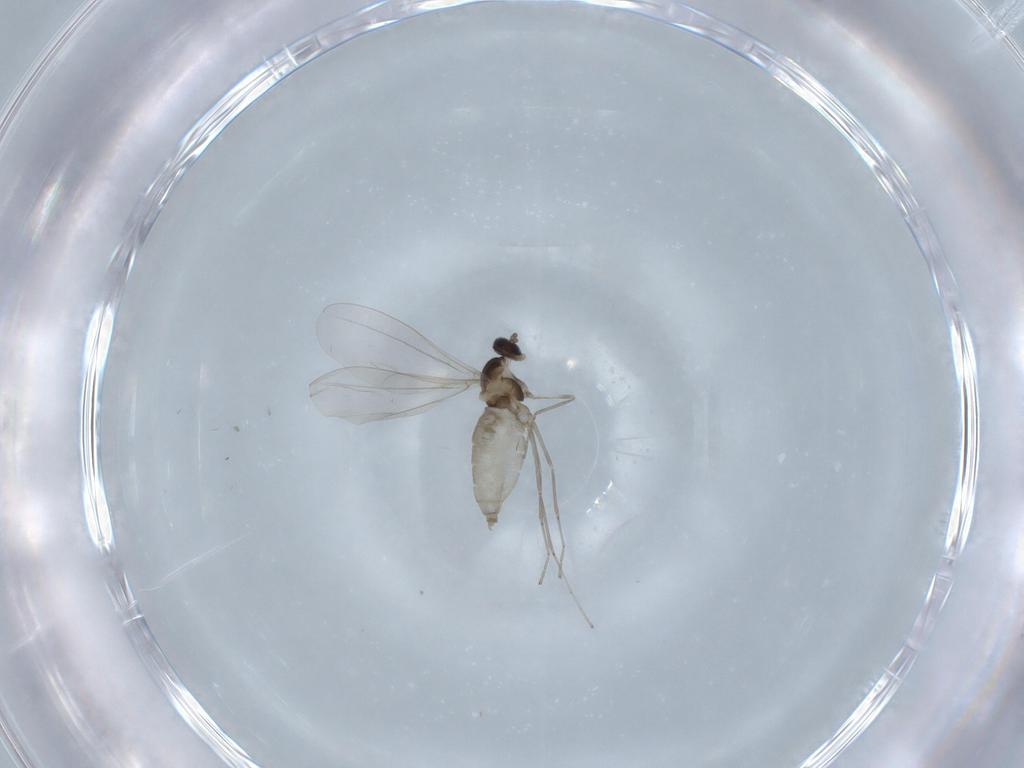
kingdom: Animalia
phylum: Arthropoda
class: Insecta
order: Diptera
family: Cecidomyiidae
